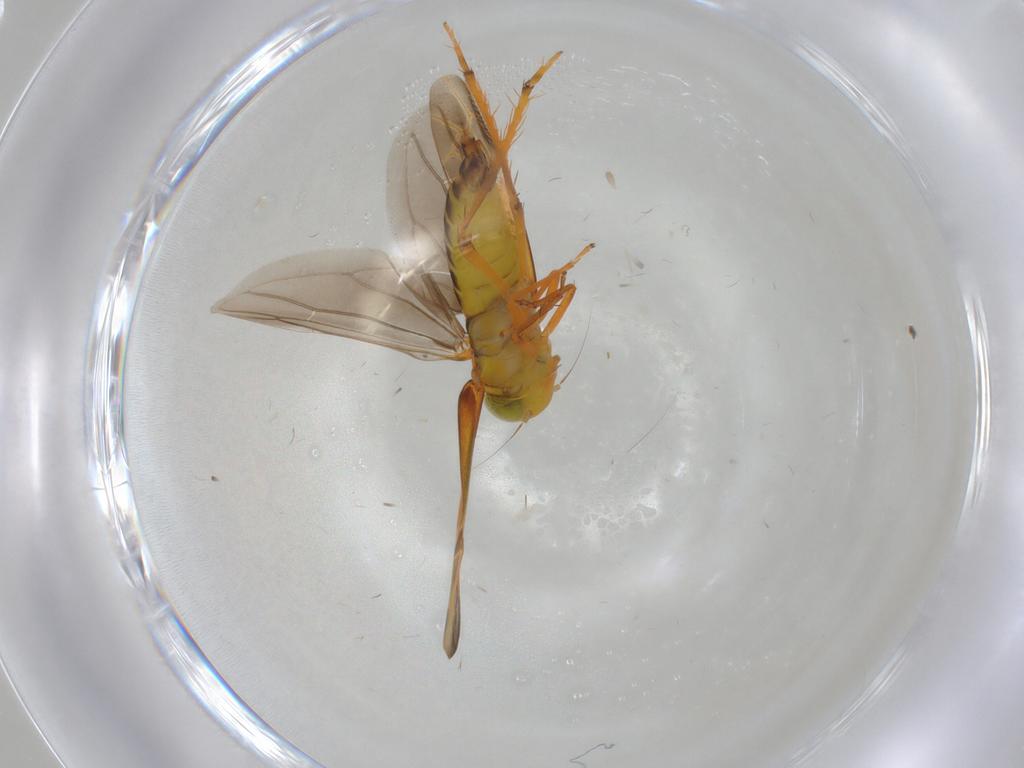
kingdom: Animalia
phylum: Arthropoda
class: Insecta
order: Hemiptera
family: Cicadellidae
